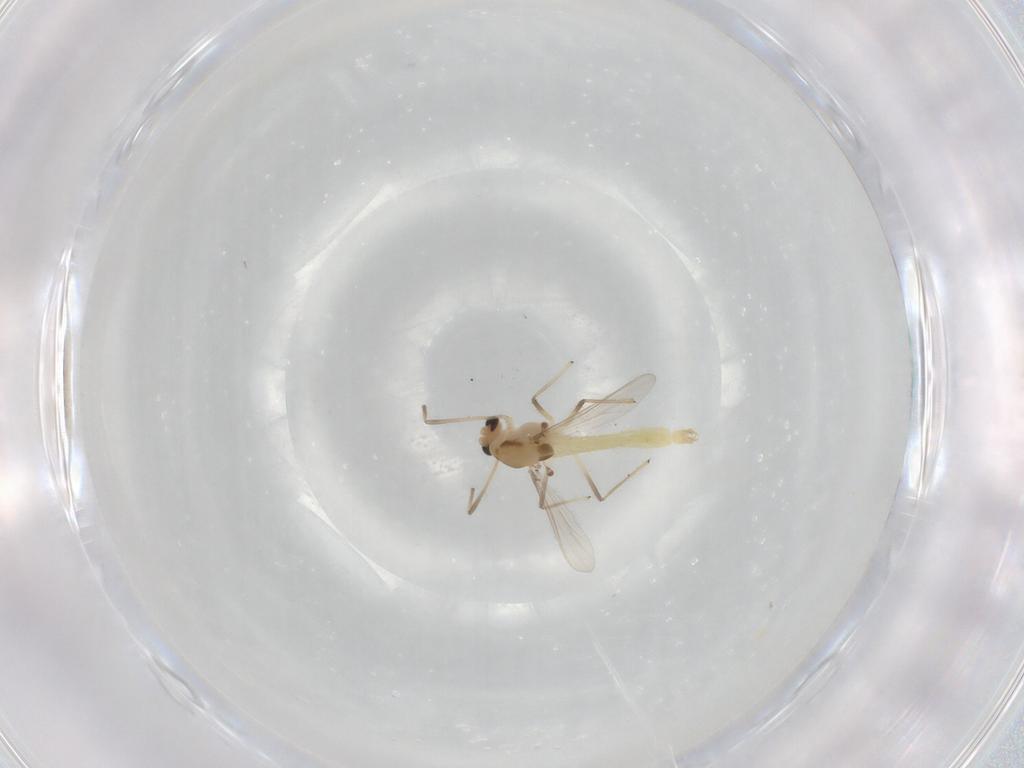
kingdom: Animalia
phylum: Arthropoda
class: Insecta
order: Diptera
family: Chironomidae
